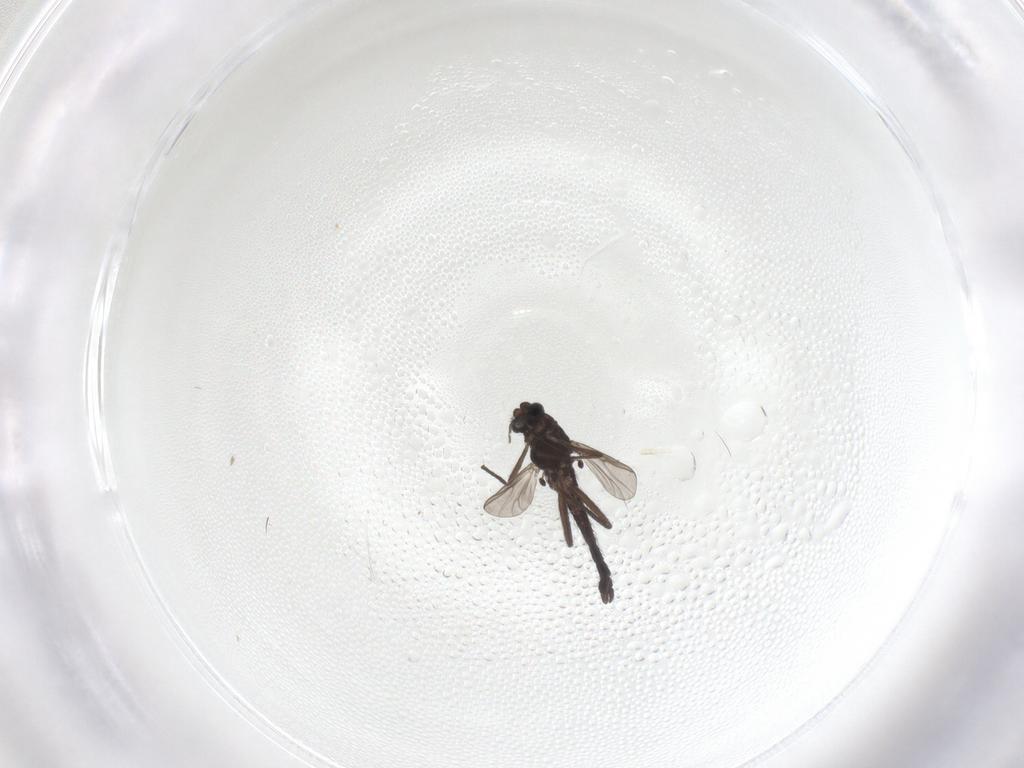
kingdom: Animalia
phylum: Arthropoda
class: Insecta
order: Diptera
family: Chironomidae
